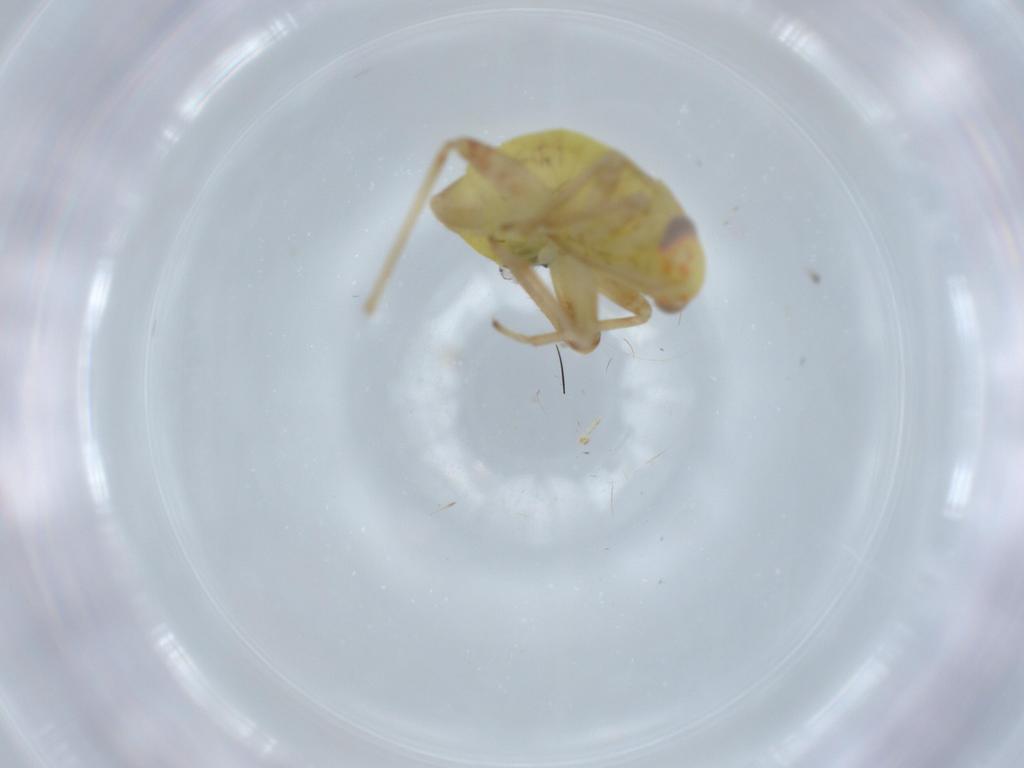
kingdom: Animalia
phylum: Arthropoda
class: Insecta
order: Hemiptera
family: Miridae
